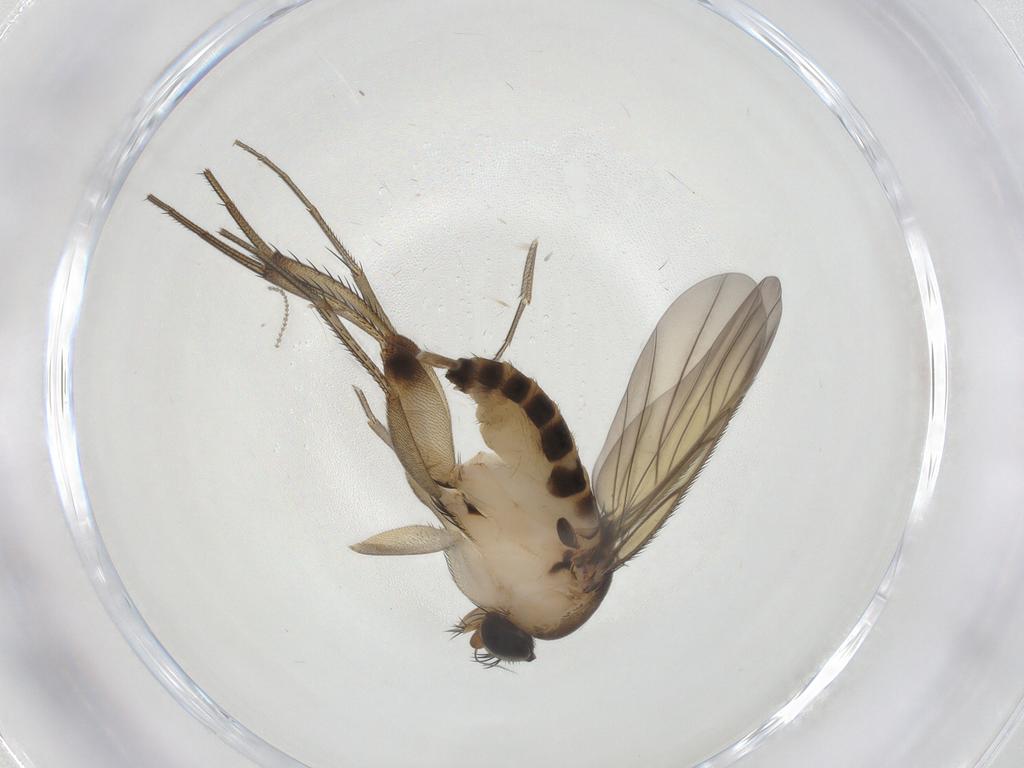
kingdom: Animalia
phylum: Arthropoda
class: Insecta
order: Diptera
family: Phoridae
